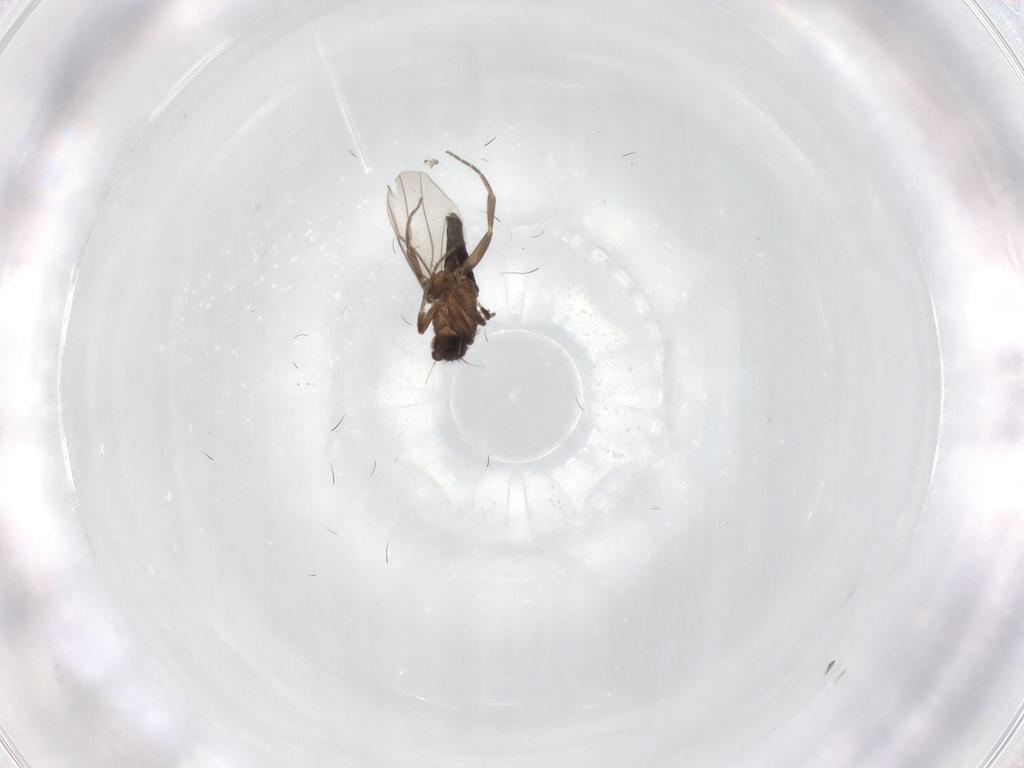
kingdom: Animalia
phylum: Arthropoda
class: Insecta
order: Diptera
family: Phoridae
